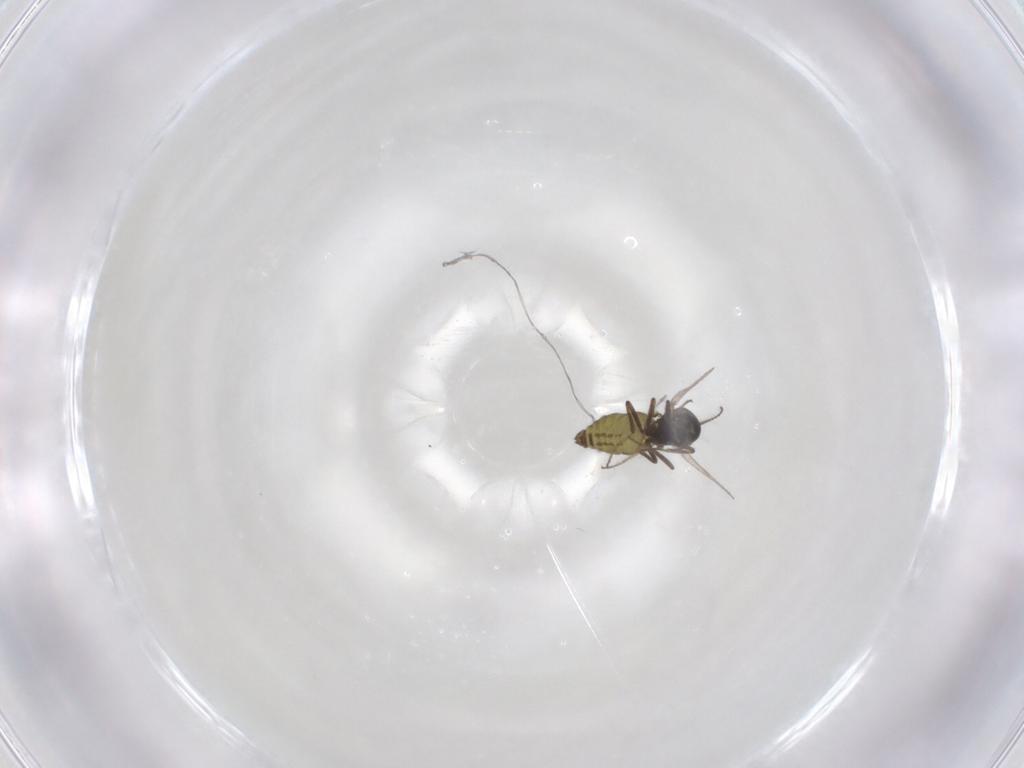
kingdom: Animalia
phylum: Arthropoda
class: Insecta
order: Diptera
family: Ceratopogonidae
